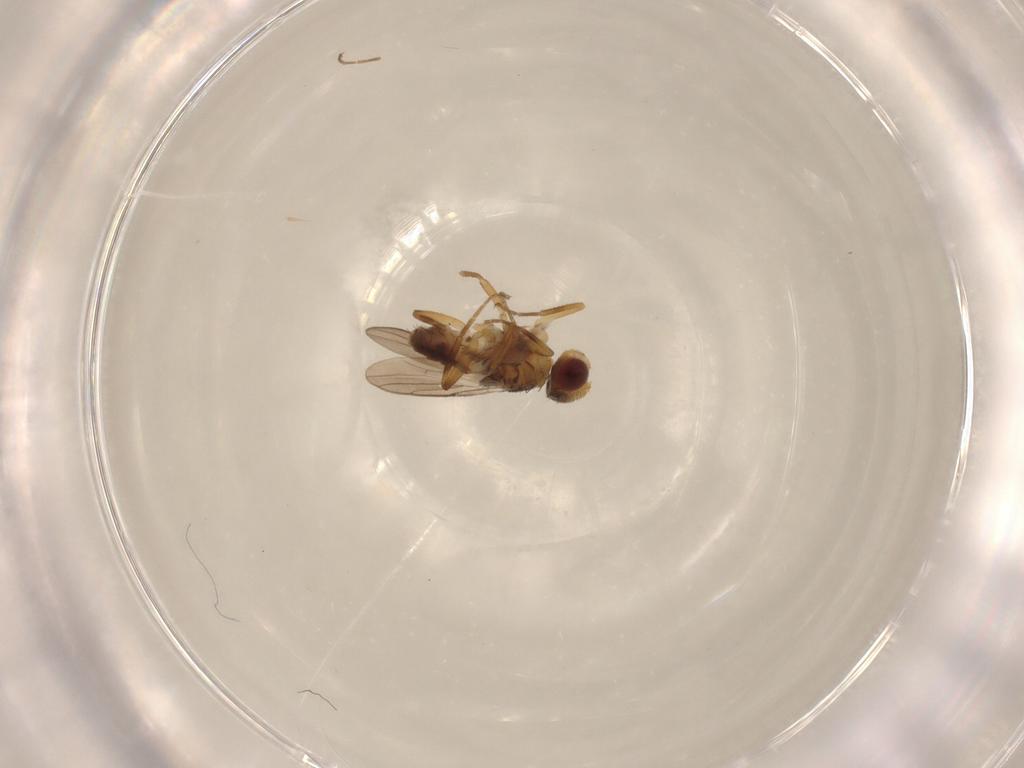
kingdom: Animalia
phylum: Arthropoda
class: Insecta
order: Diptera
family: Chloropidae
